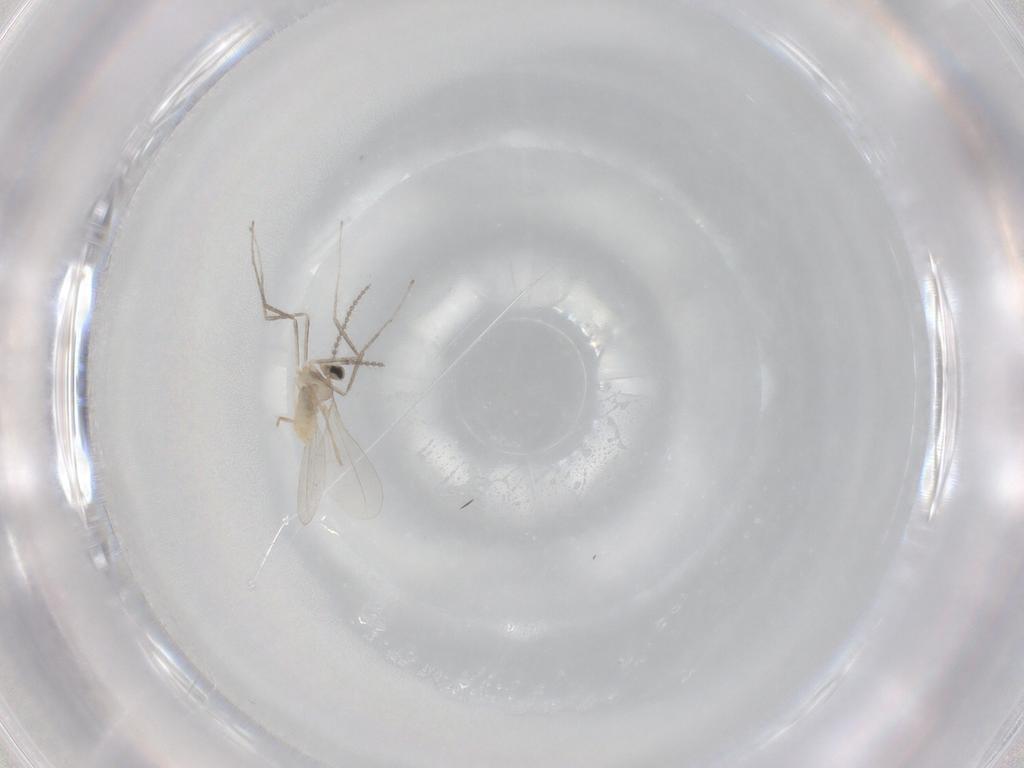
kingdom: Animalia
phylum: Arthropoda
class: Insecta
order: Diptera
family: Cecidomyiidae
